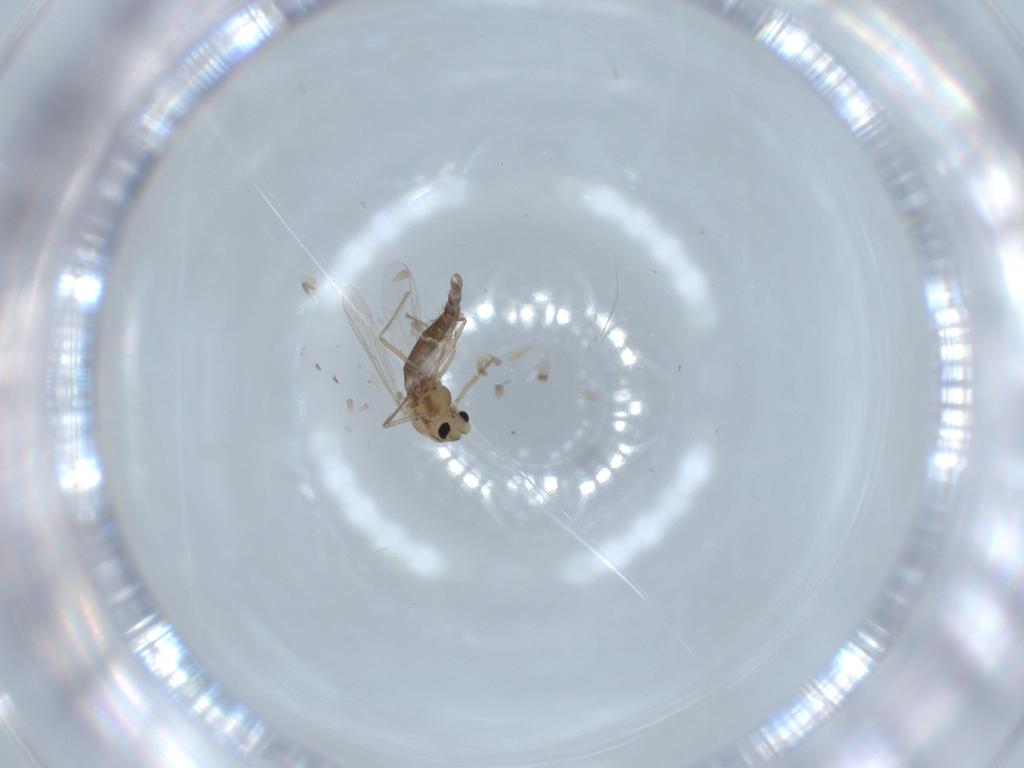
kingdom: Animalia
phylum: Arthropoda
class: Insecta
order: Diptera
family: Chironomidae
